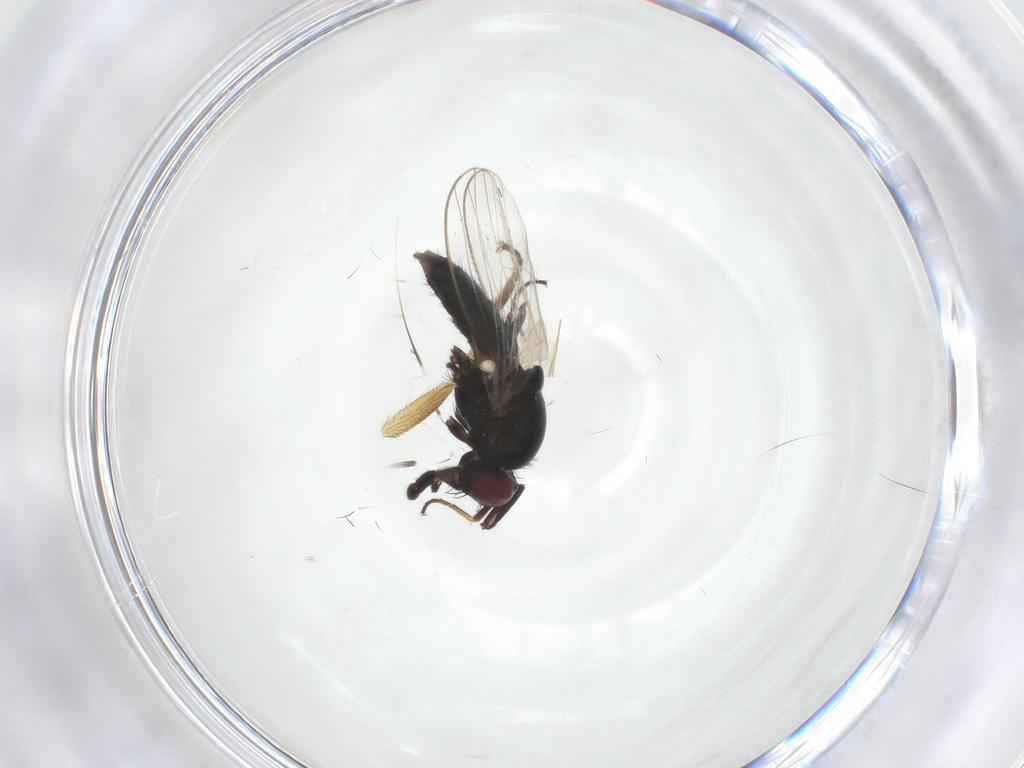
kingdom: Animalia
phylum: Arthropoda
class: Insecta
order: Diptera
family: Carnidae
